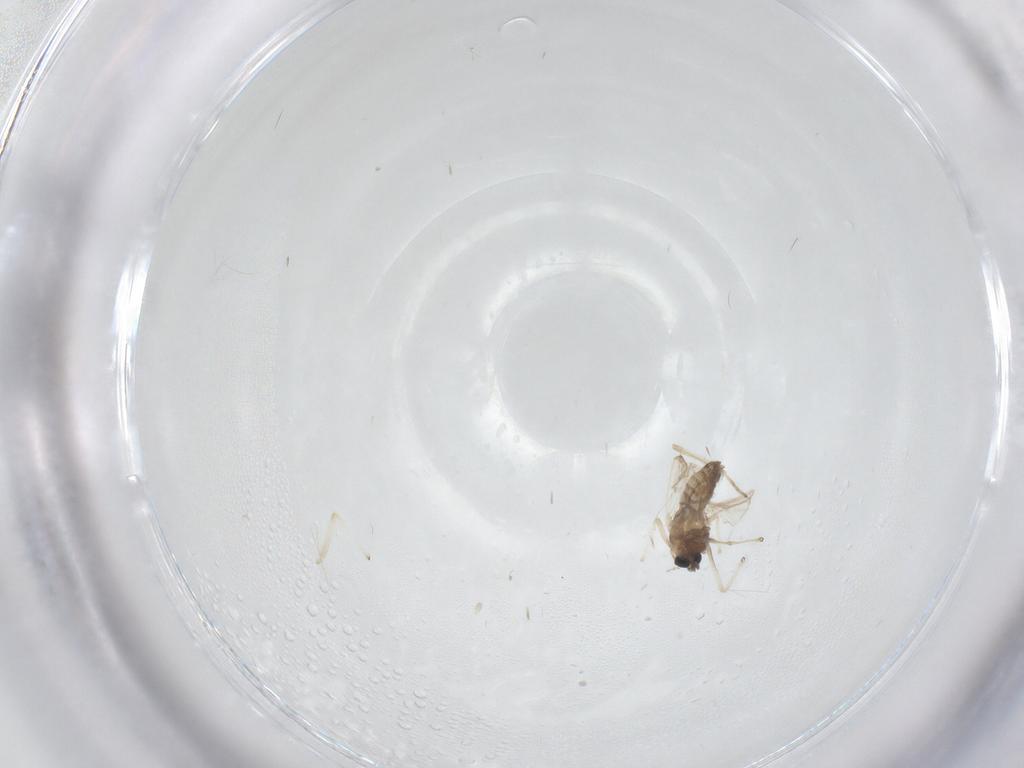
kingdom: Animalia
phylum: Arthropoda
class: Insecta
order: Diptera
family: Chironomidae
